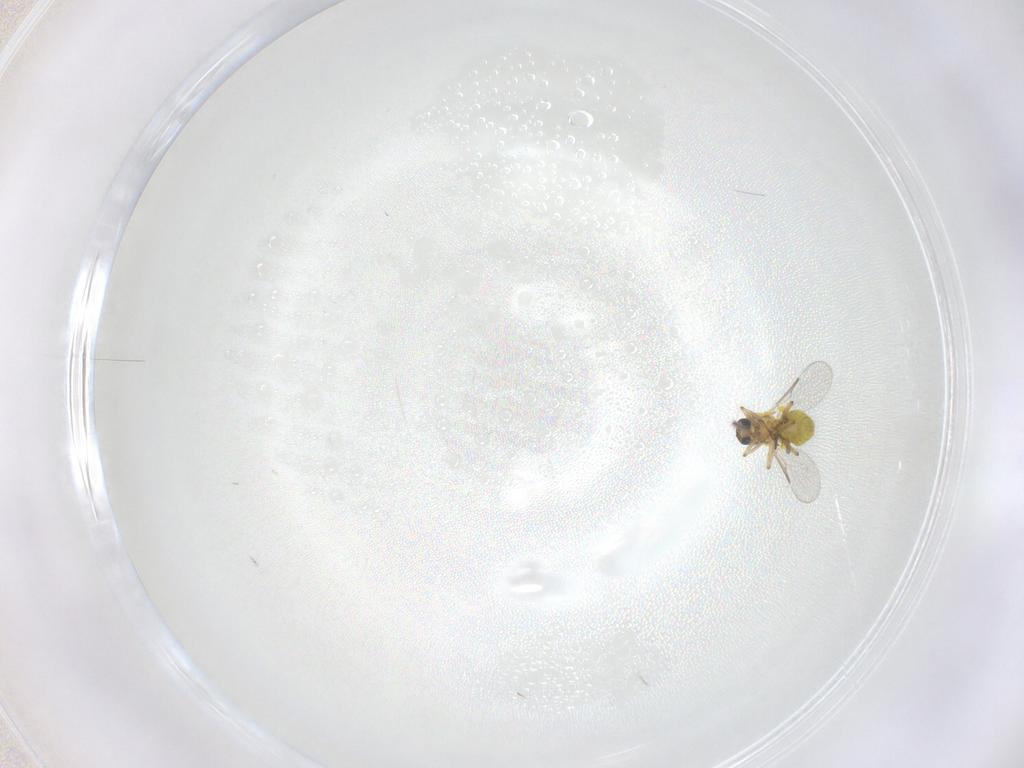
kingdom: Animalia
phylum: Arthropoda
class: Insecta
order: Diptera
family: Ceratopogonidae
